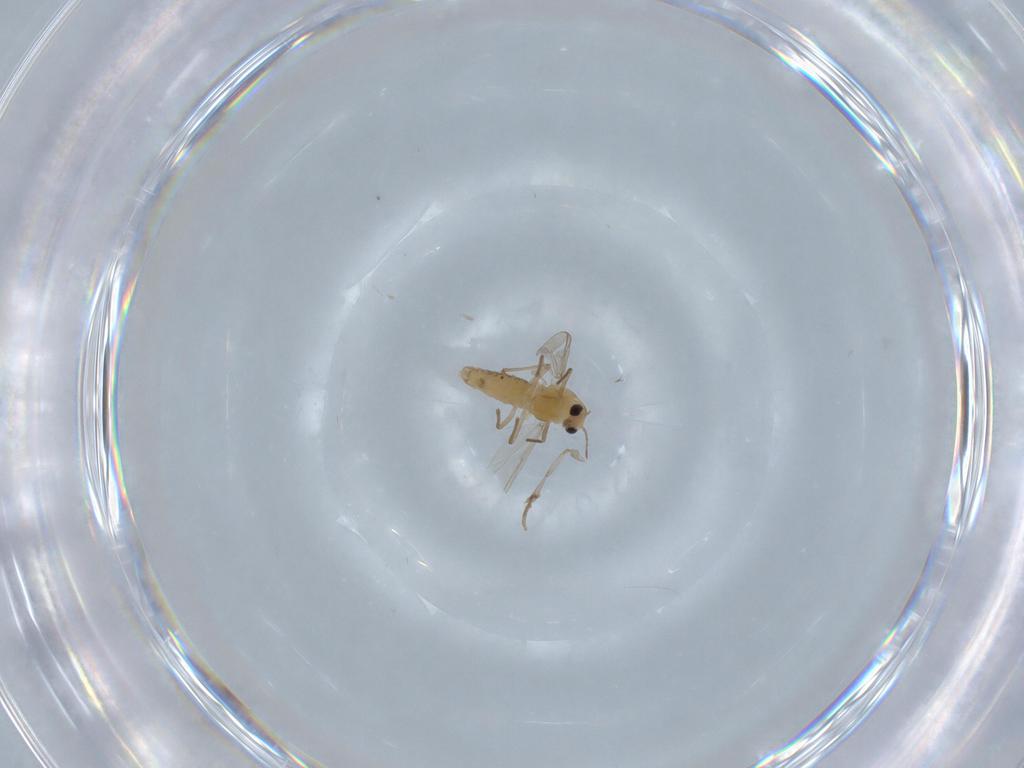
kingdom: Animalia
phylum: Arthropoda
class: Insecta
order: Diptera
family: Chironomidae
